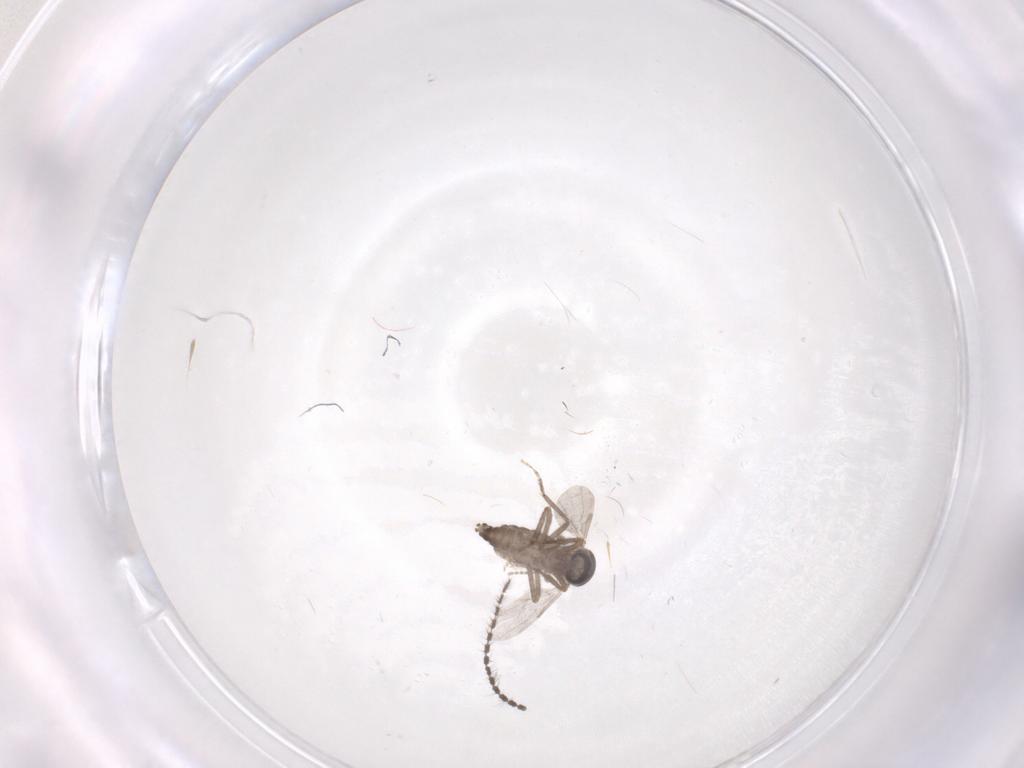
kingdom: Animalia
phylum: Arthropoda
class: Insecta
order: Diptera
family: Ceratopogonidae
